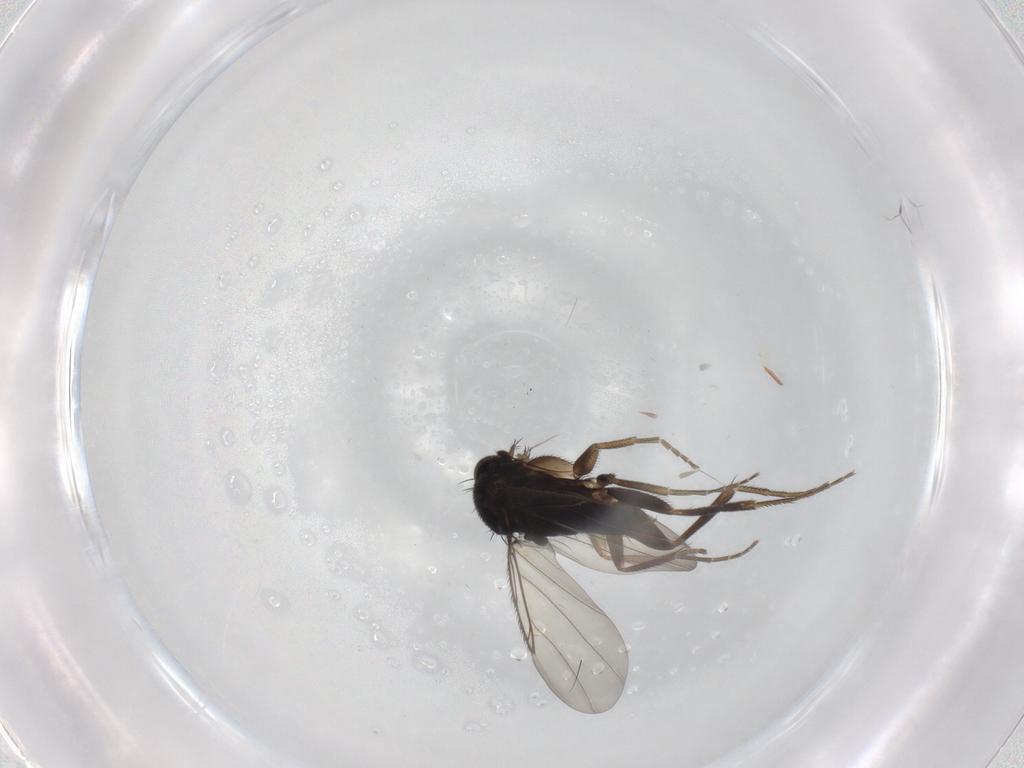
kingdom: Animalia
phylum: Arthropoda
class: Insecta
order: Diptera
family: Phoridae
